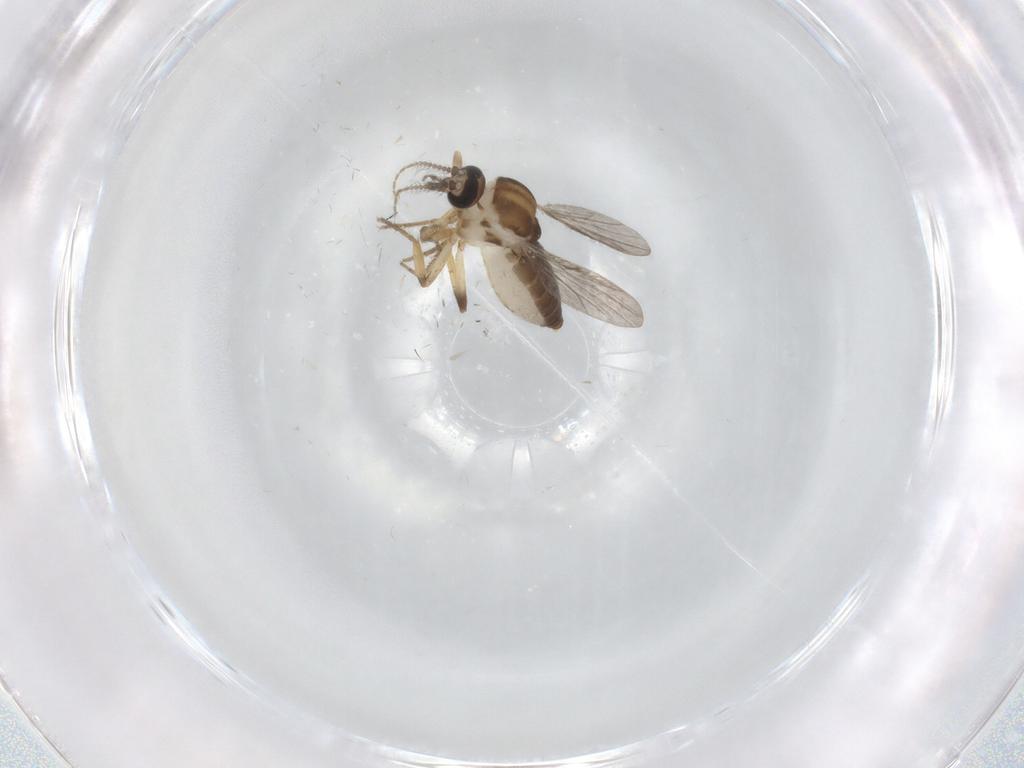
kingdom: Animalia
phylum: Arthropoda
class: Insecta
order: Diptera
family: Ceratopogonidae
